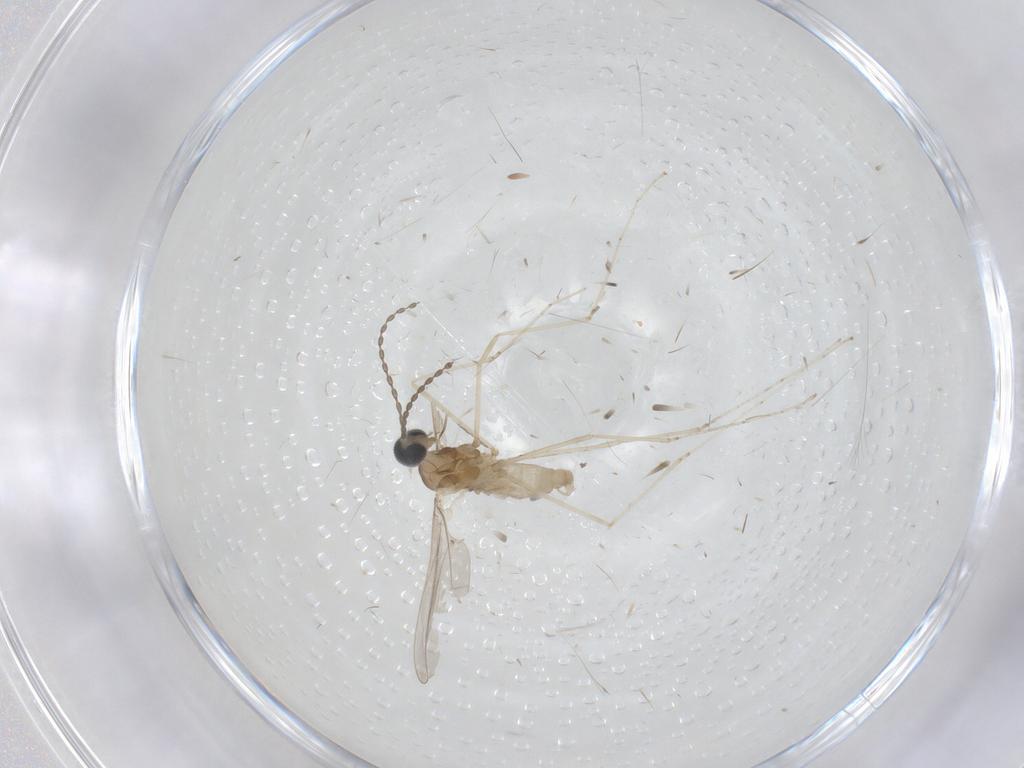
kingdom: Animalia
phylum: Arthropoda
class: Insecta
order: Diptera
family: Cecidomyiidae
